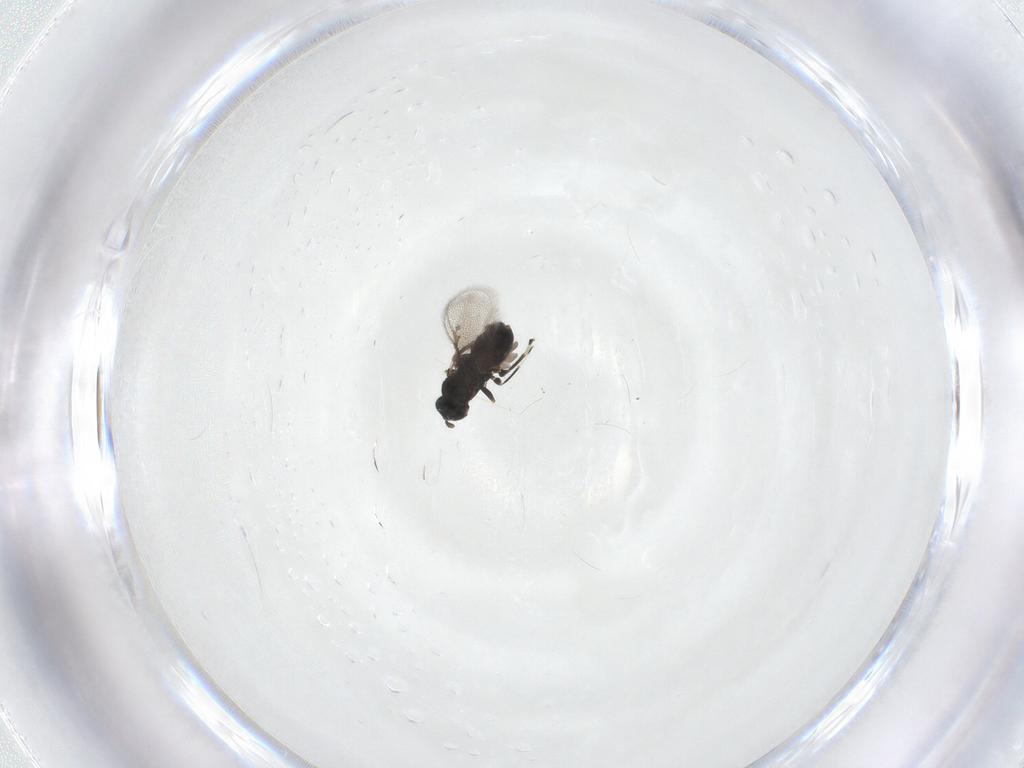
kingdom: Animalia
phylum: Arthropoda
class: Insecta
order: Hymenoptera
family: Eulophidae
